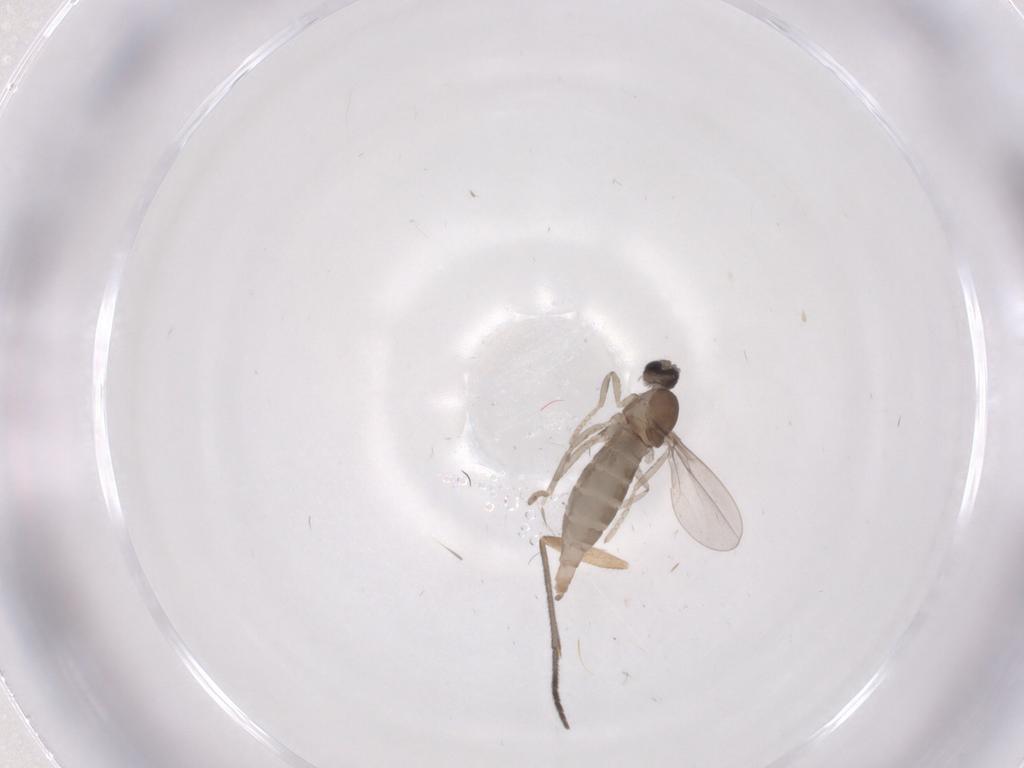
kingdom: Animalia
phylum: Arthropoda
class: Insecta
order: Diptera
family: Cecidomyiidae
